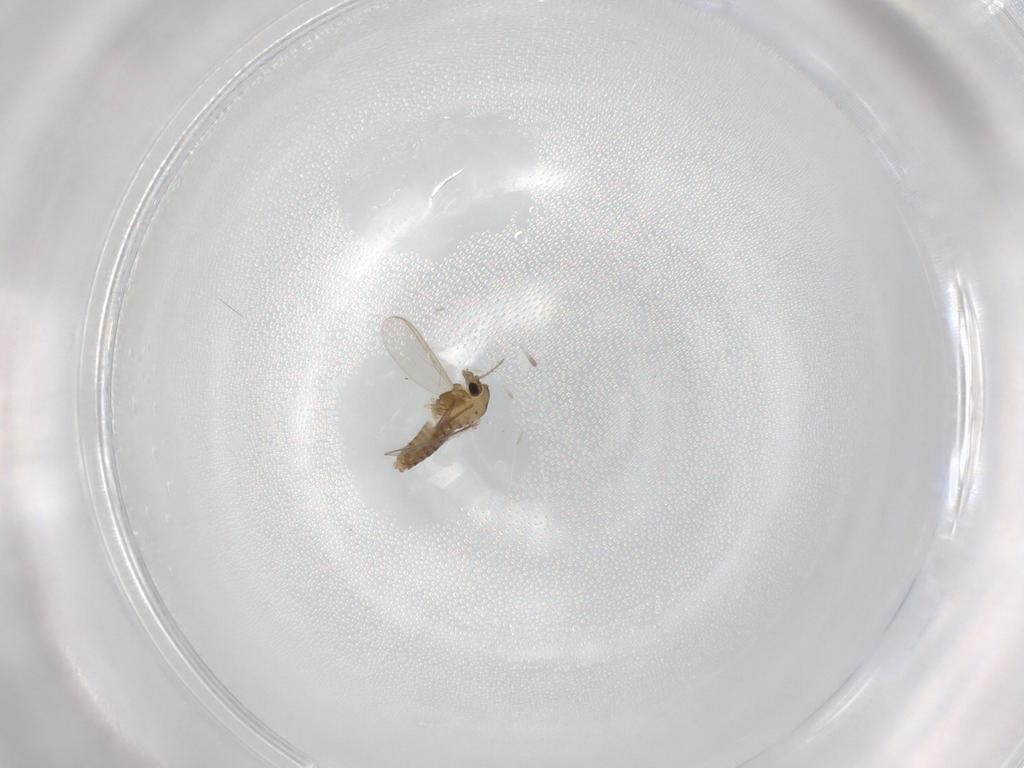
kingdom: Animalia
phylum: Arthropoda
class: Insecta
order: Diptera
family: Chironomidae
